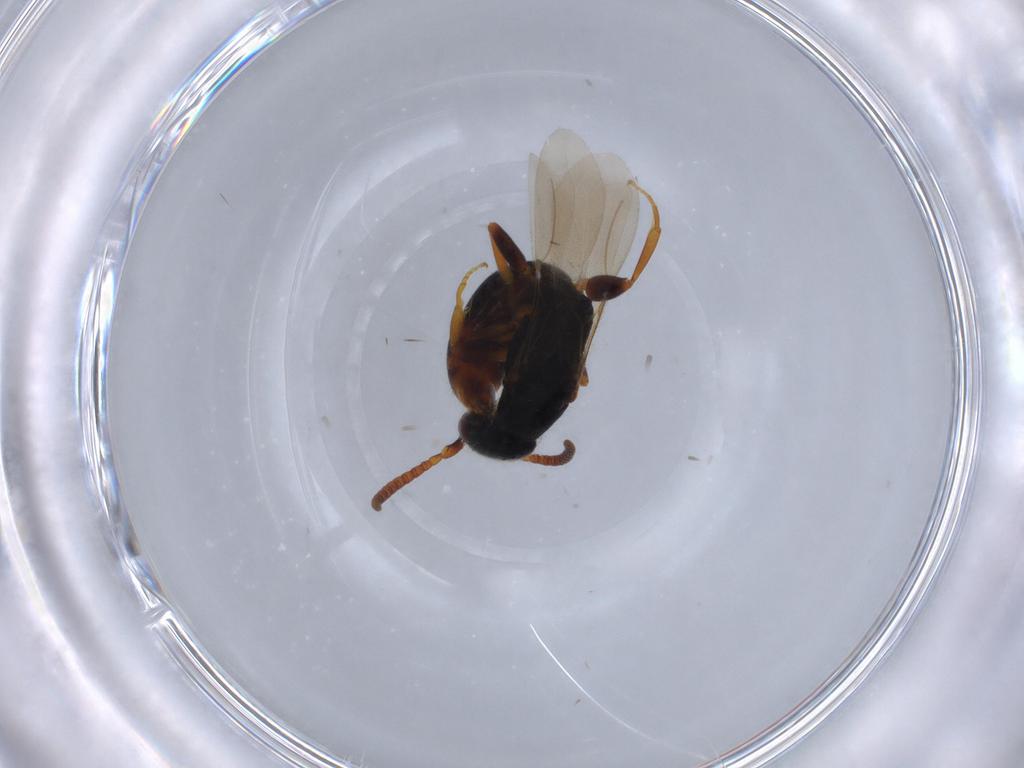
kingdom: Animalia
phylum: Arthropoda
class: Insecta
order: Hymenoptera
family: Bethylidae
